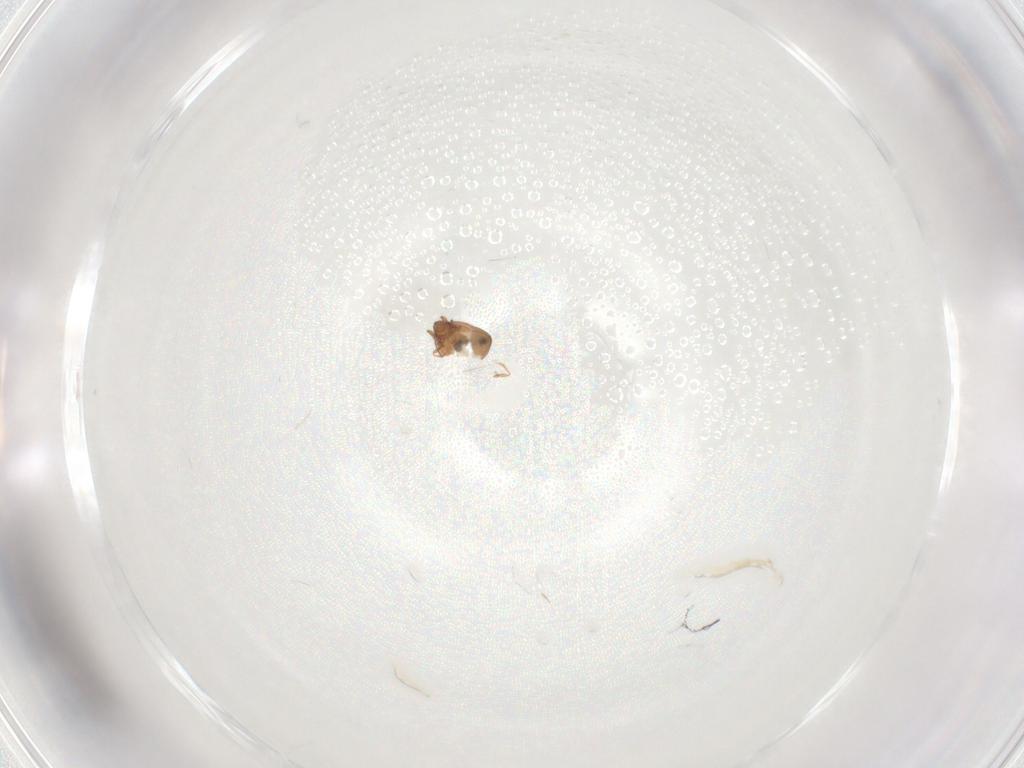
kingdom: Animalia
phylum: Arthropoda
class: Arachnida
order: Sarcoptiformes
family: Scheloribatidae
